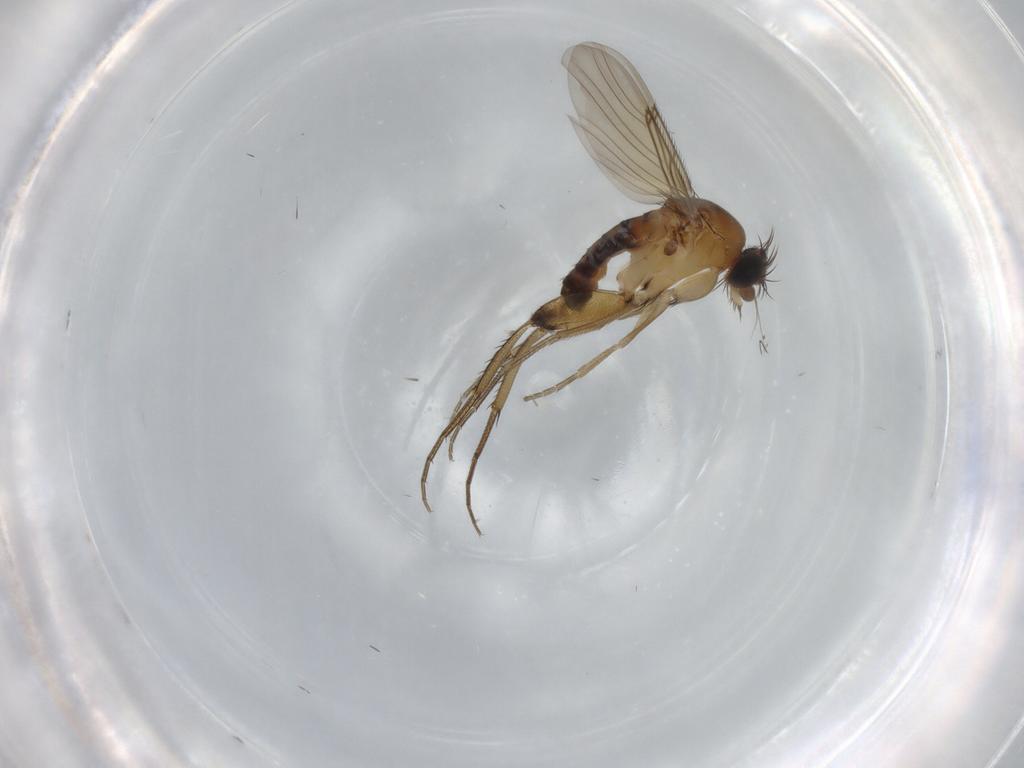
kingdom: Animalia
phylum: Arthropoda
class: Insecta
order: Diptera
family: Phoridae
